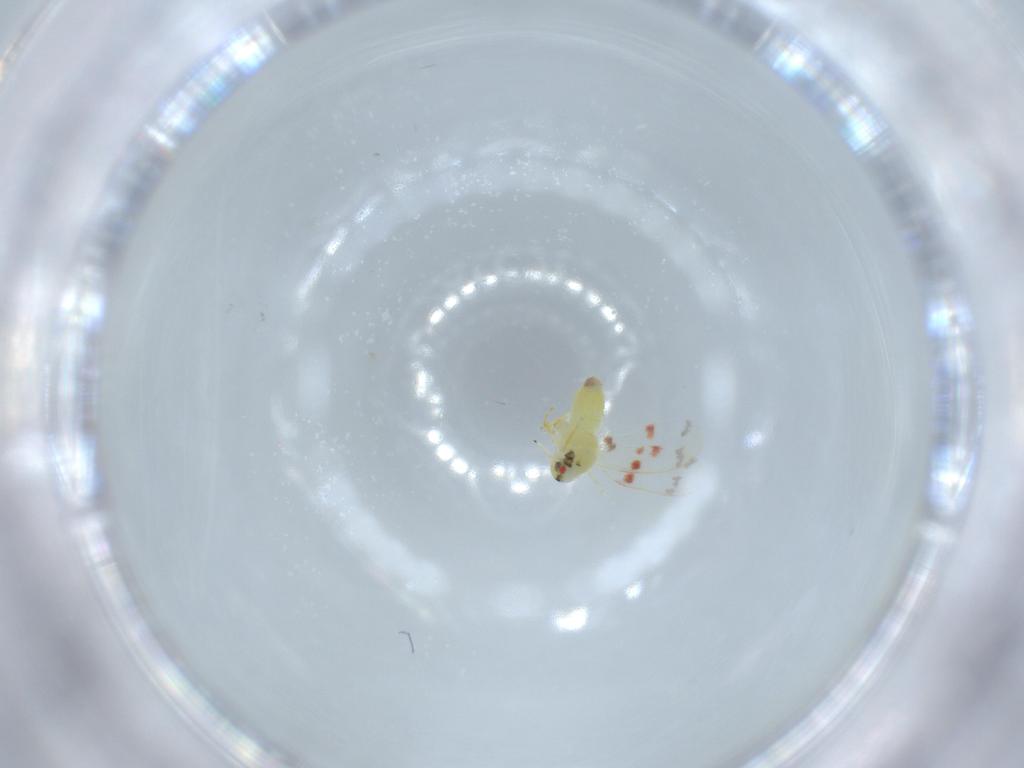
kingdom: Animalia
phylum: Arthropoda
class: Insecta
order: Hemiptera
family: Aleyrodidae
